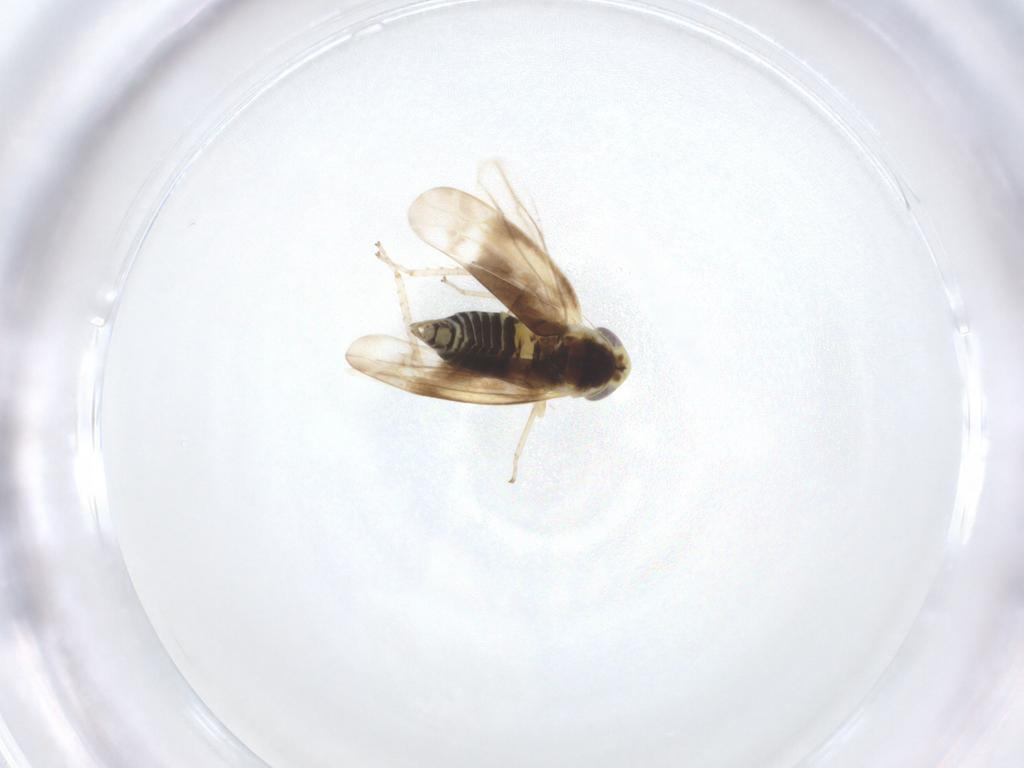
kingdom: Animalia
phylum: Arthropoda
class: Insecta
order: Hemiptera
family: Cicadellidae
